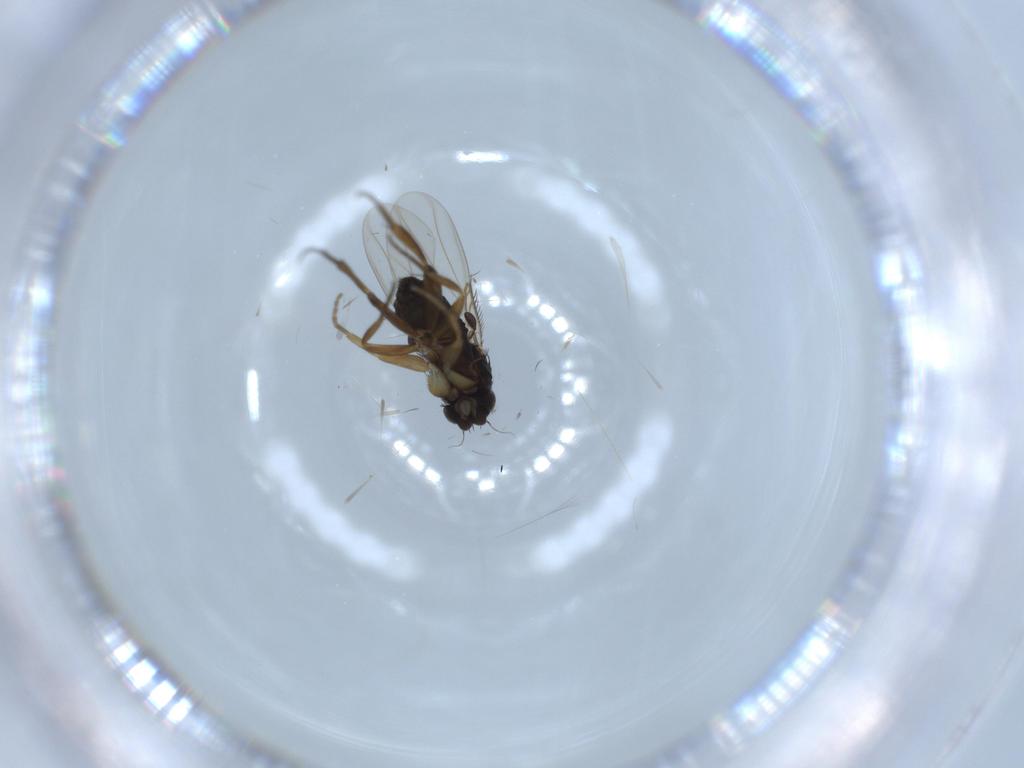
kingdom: Animalia
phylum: Arthropoda
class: Insecta
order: Diptera
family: Phoridae
